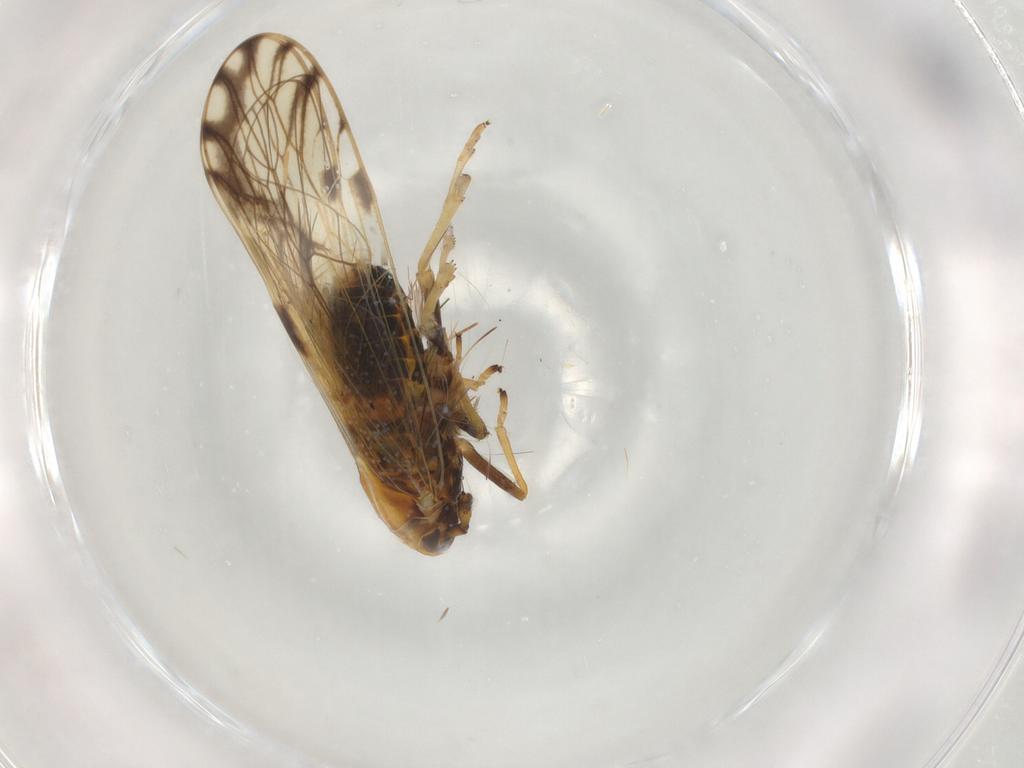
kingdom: Animalia
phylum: Arthropoda
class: Insecta
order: Hemiptera
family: Delphacidae
